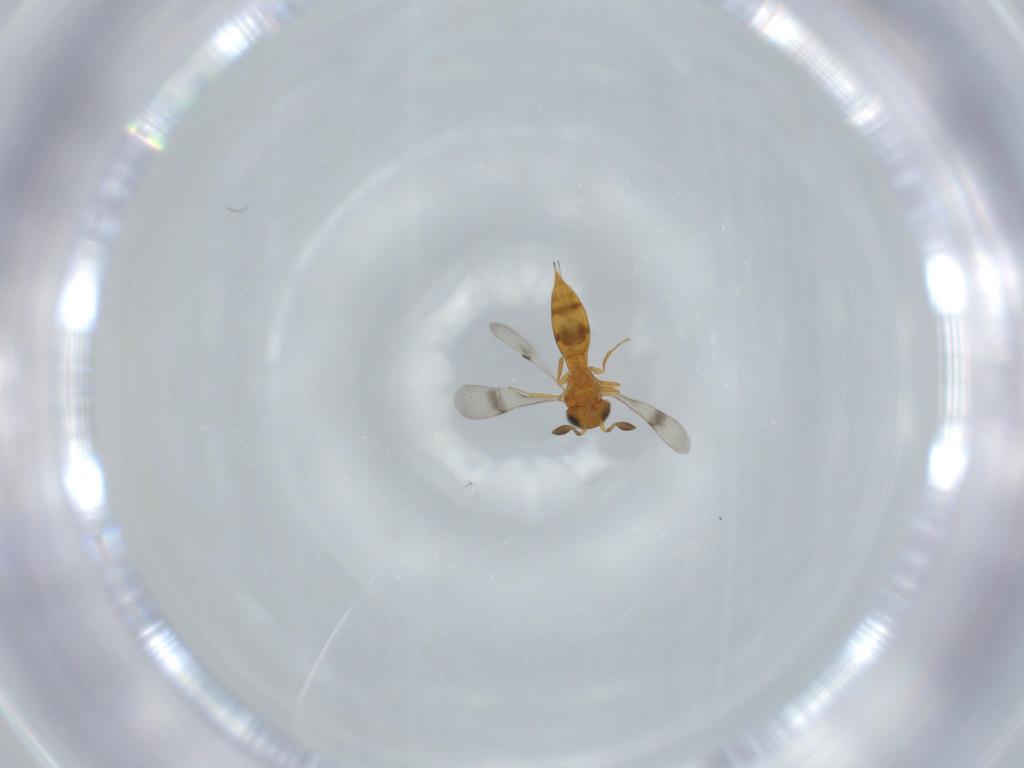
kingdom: Animalia
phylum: Arthropoda
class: Insecta
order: Hymenoptera
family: Scelionidae
